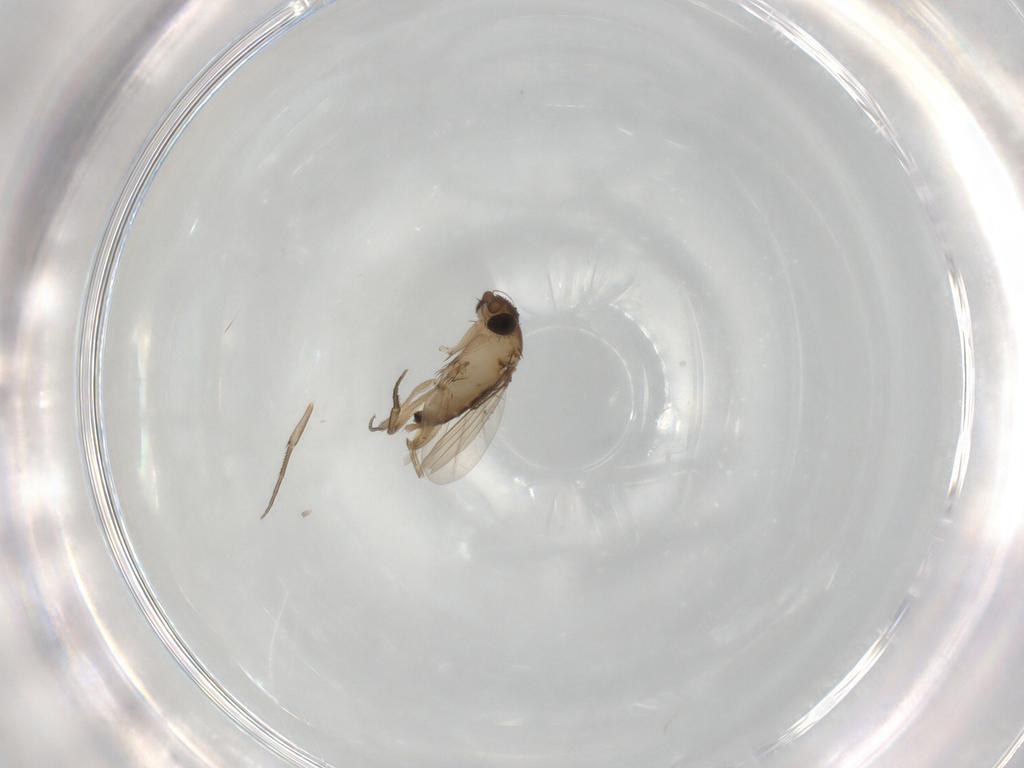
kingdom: Animalia
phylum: Arthropoda
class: Insecta
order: Diptera
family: Phoridae
